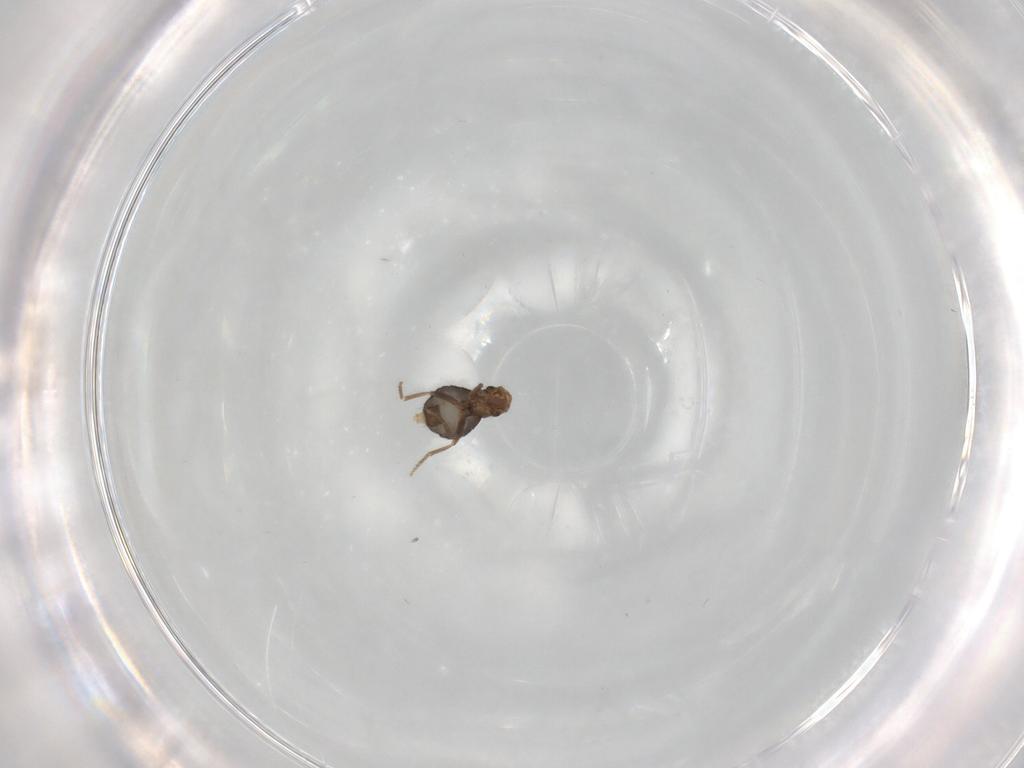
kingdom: Animalia
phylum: Arthropoda
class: Insecta
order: Diptera
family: Phoridae
